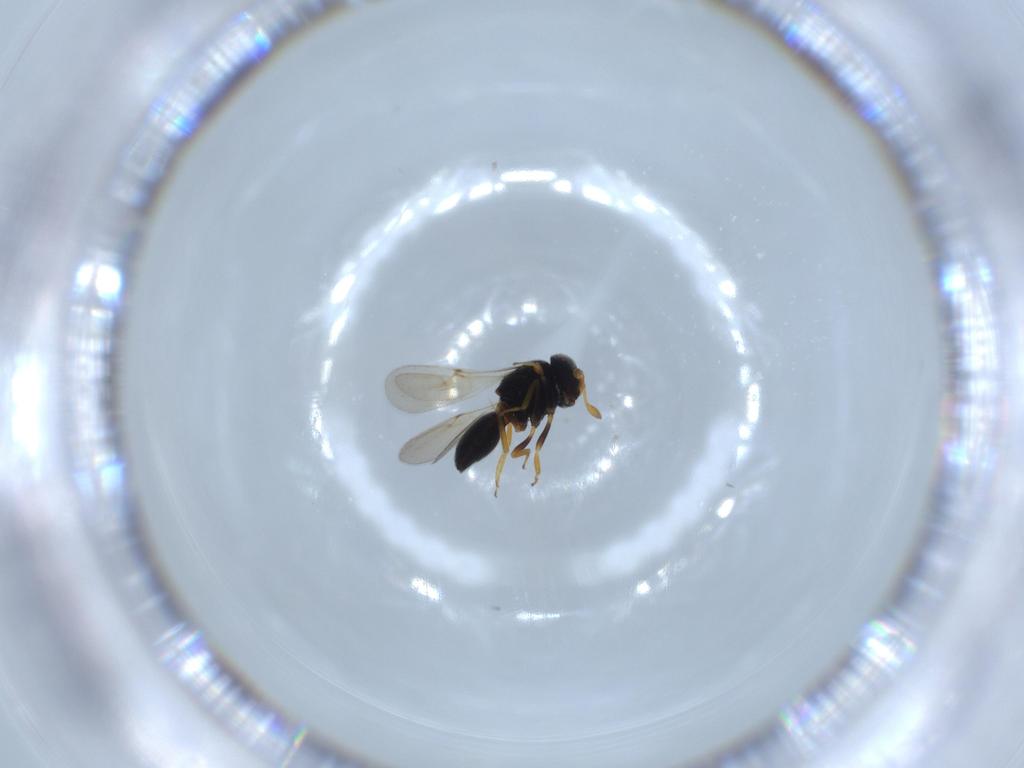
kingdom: Animalia
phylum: Arthropoda
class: Insecta
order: Hymenoptera
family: Scelionidae
